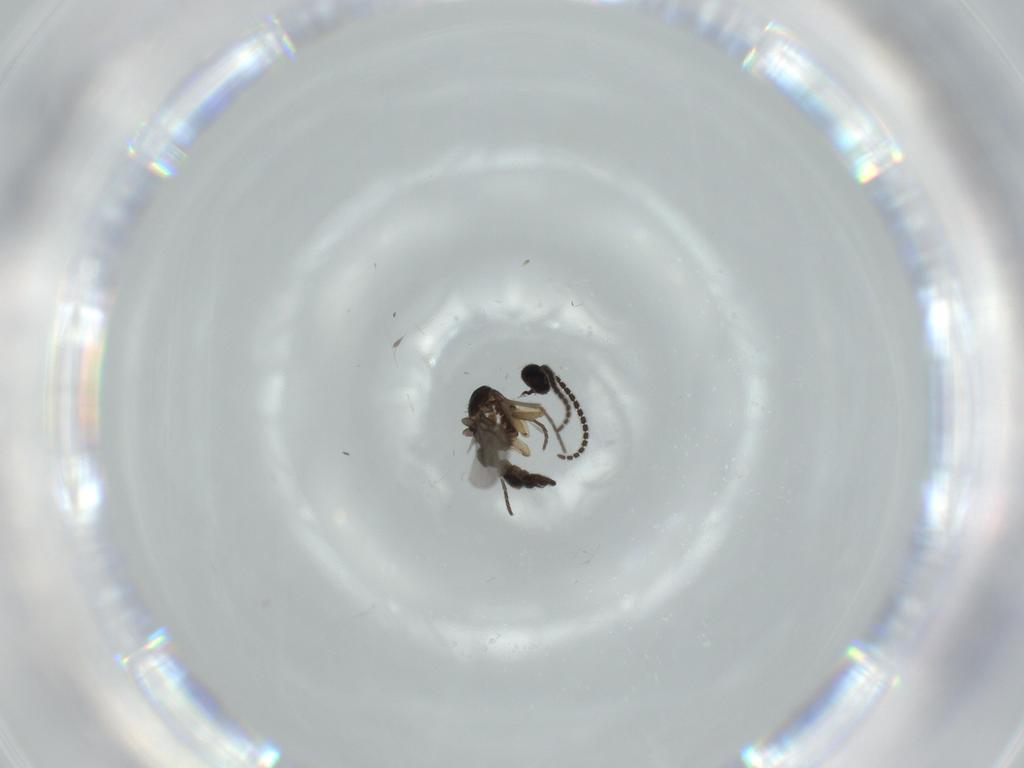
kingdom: Animalia
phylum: Arthropoda
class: Insecta
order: Diptera
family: Sciaridae
